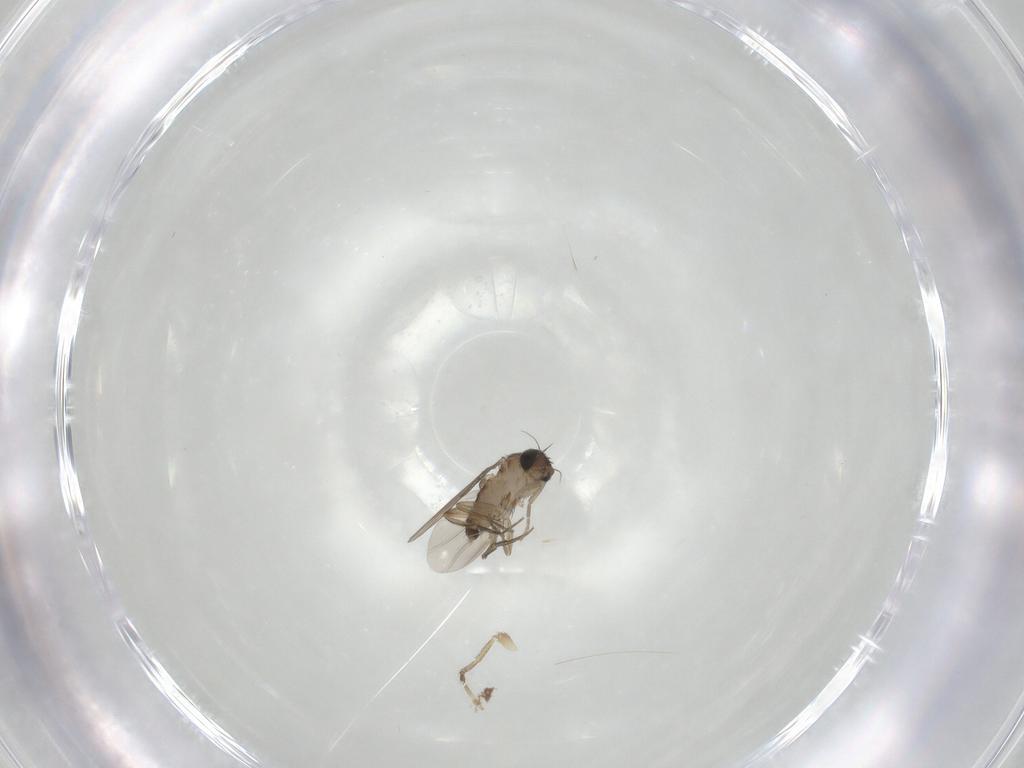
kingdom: Animalia
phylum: Arthropoda
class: Insecta
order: Diptera
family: Phoridae
